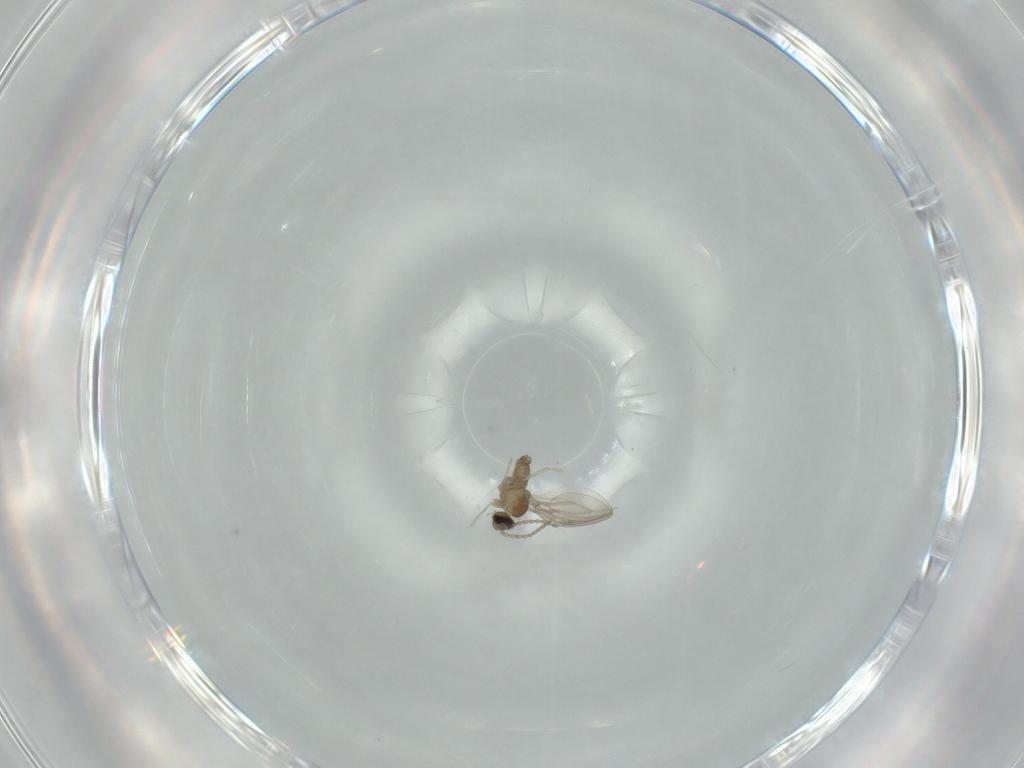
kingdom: Animalia
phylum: Arthropoda
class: Insecta
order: Diptera
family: Cecidomyiidae
